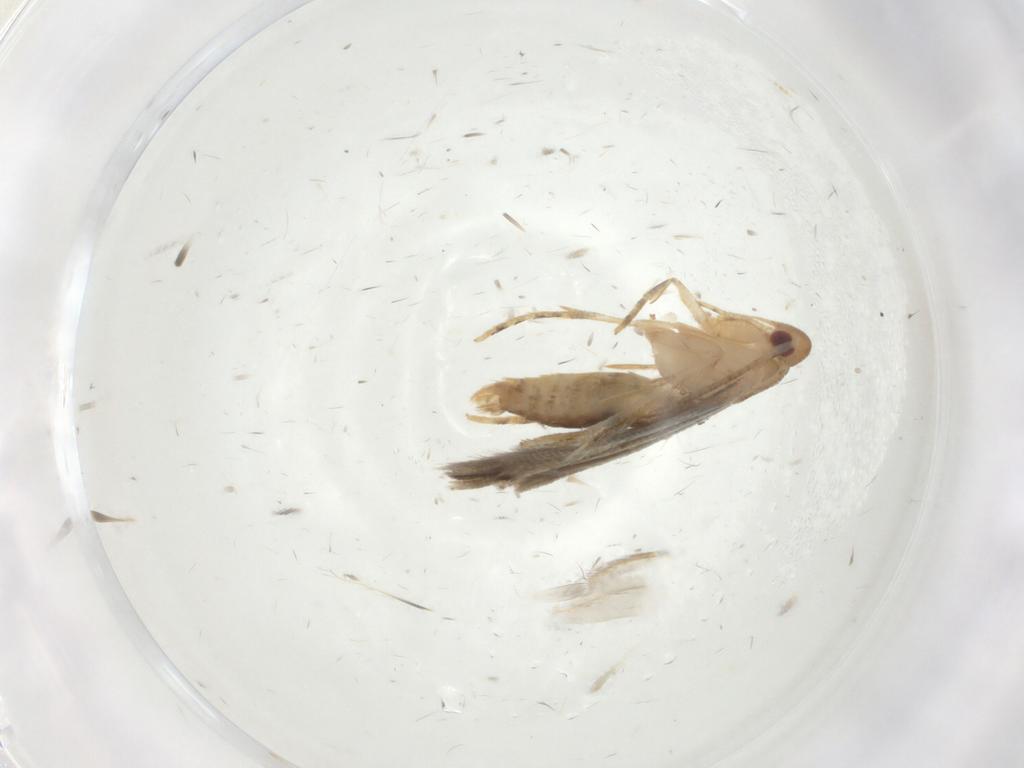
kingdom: Animalia
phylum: Arthropoda
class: Insecta
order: Lepidoptera
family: Momphidae
